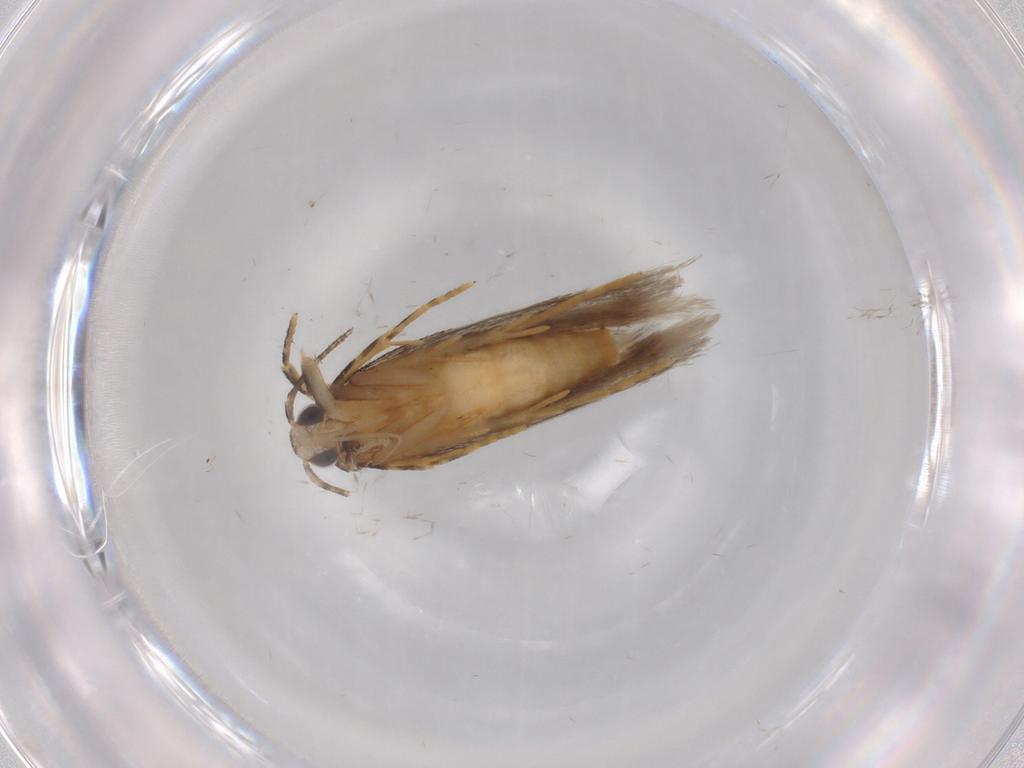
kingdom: Animalia
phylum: Arthropoda
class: Insecta
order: Lepidoptera
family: Autostichidae
